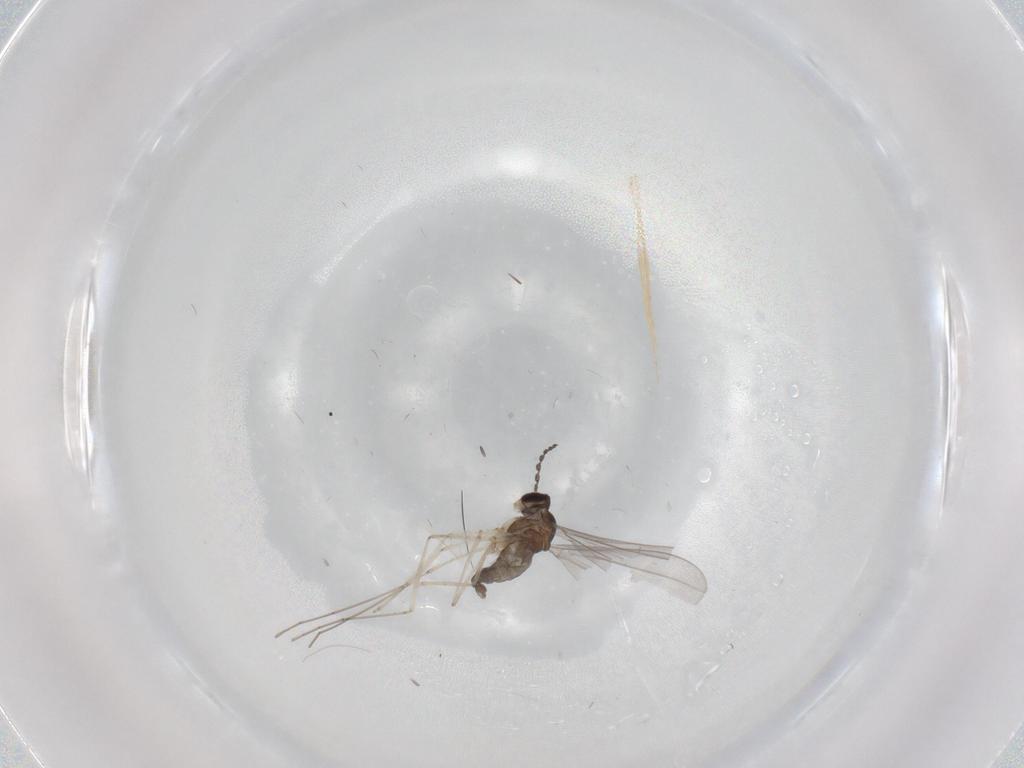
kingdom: Animalia
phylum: Arthropoda
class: Insecta
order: Diptera
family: Cecidomyiidae
